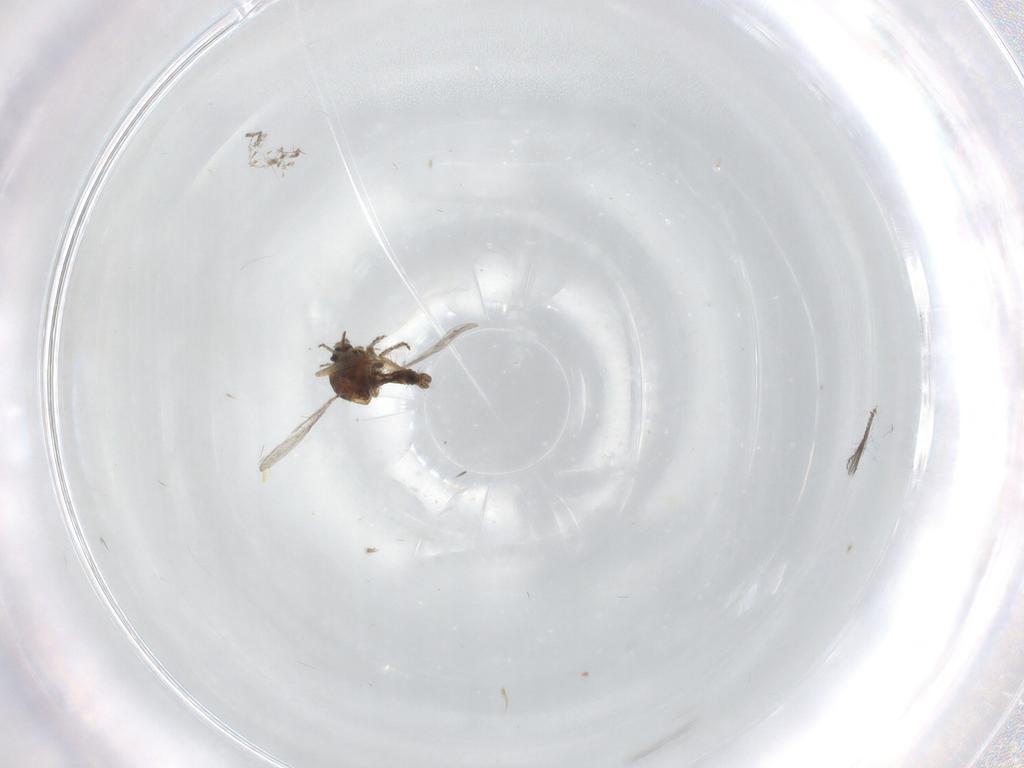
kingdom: Animalia
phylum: Arthropoda
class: Insecta
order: Diptera
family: Ceratopogonidae
